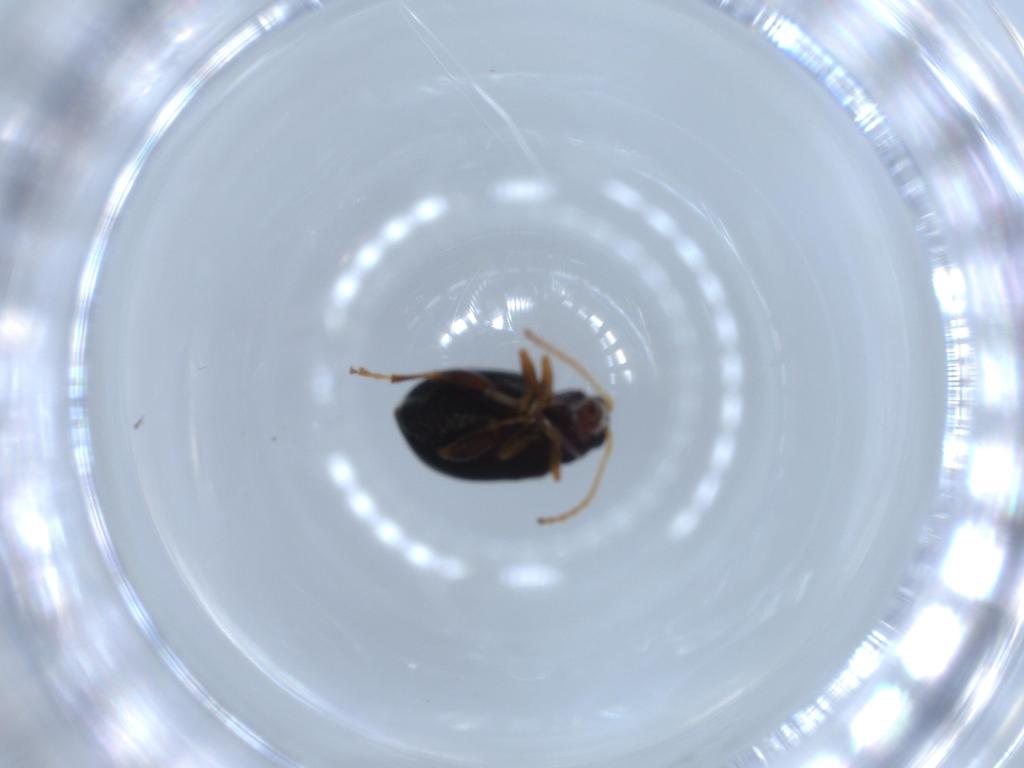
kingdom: Animalia
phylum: Arthropoda
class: Insecta
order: Coleoptera
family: Chrysomelidae
